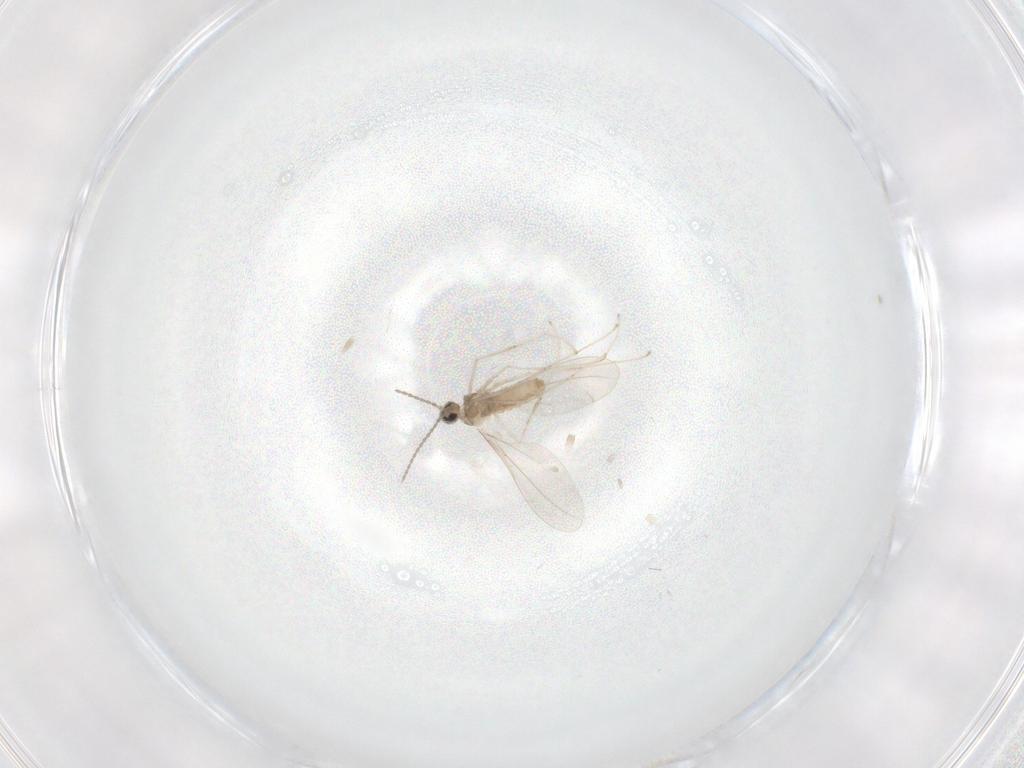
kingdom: Animalia
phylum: Arthropoda
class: Insecta
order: Diptera
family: Cecidomyiidae
